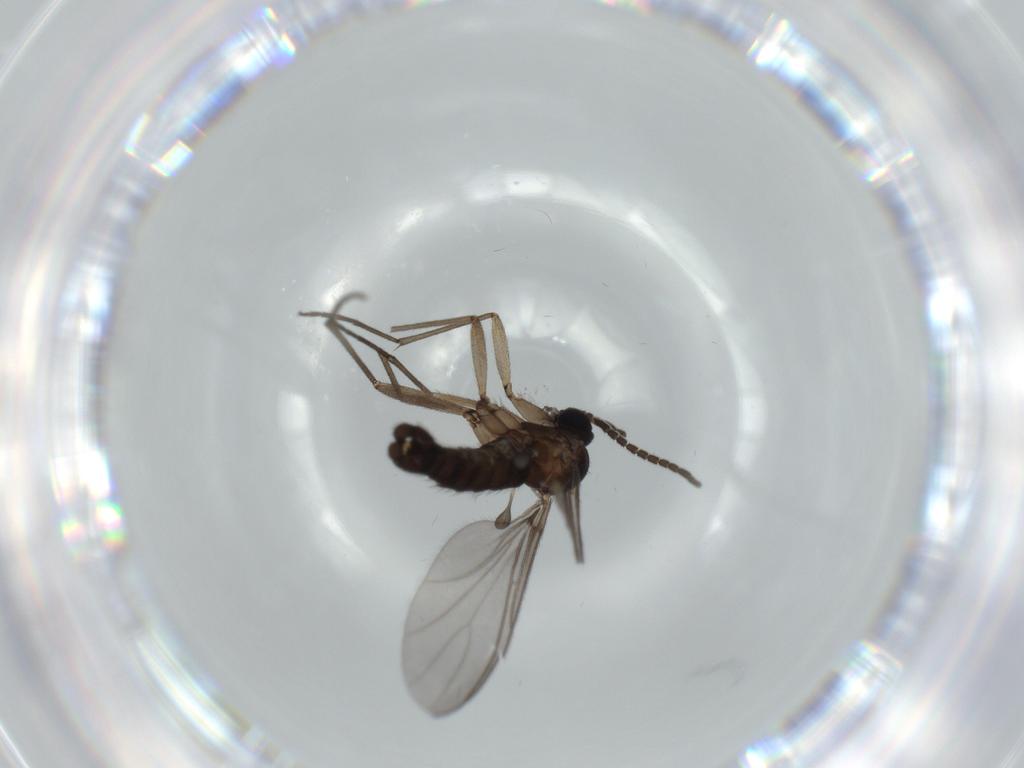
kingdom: Animalia
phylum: Arthropoda
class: Insecta
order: Diptera
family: Sciaridae
